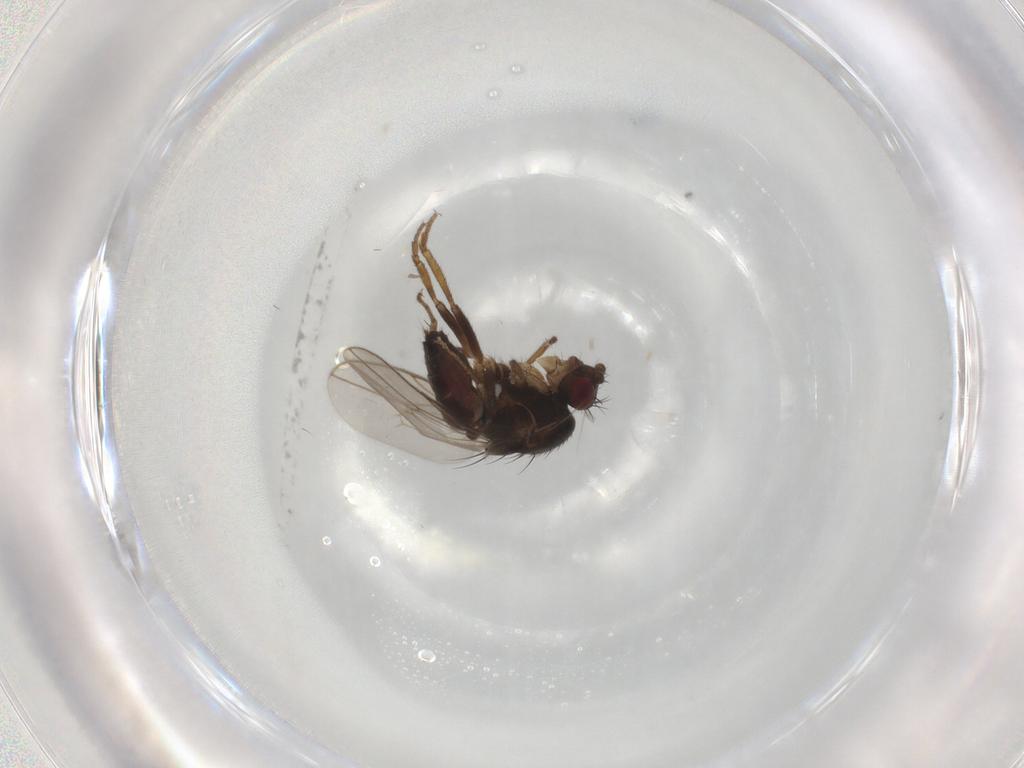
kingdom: Animalia
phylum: Arthropoda
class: Insecta
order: Diptera
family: Sphaeroceridae
